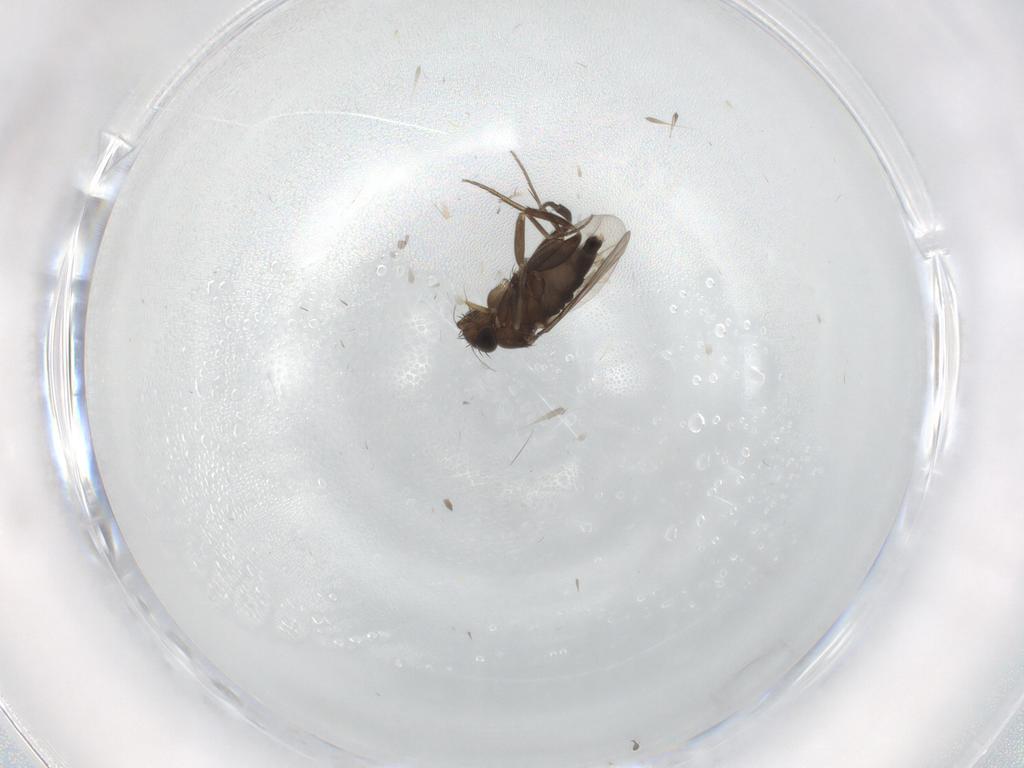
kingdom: Animalia
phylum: Arthropoda
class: Insecta
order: Diptera
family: Phoridae
